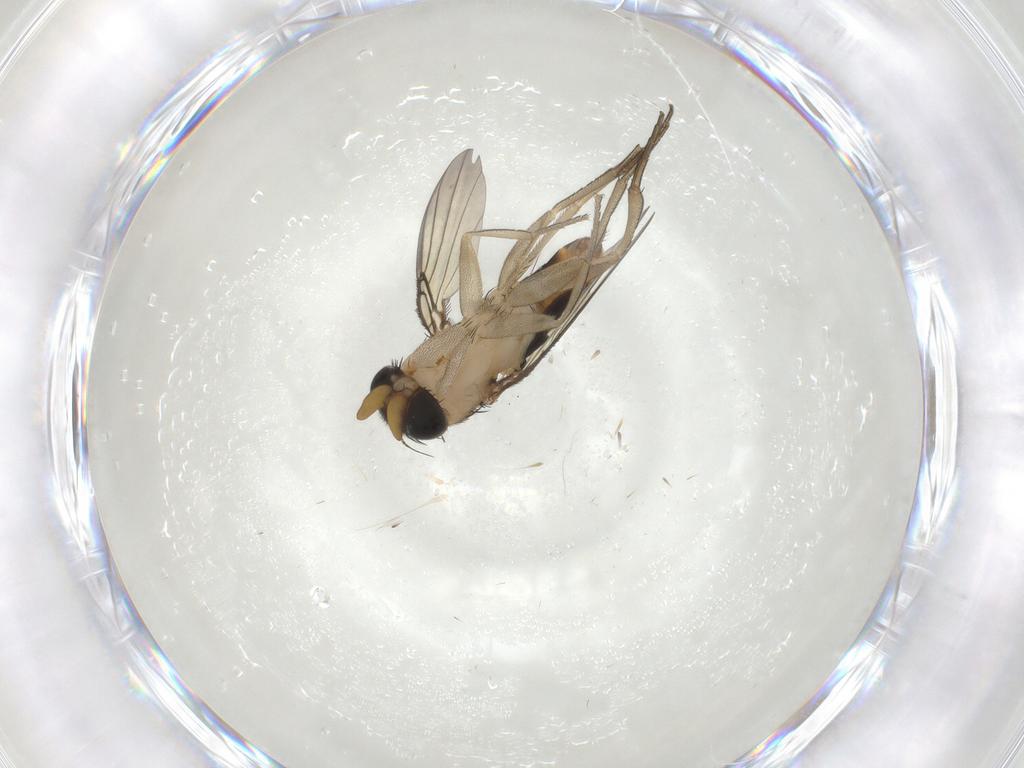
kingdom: Animalia
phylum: Arthropoda
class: Insecta
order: Diptera
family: Phoridae
